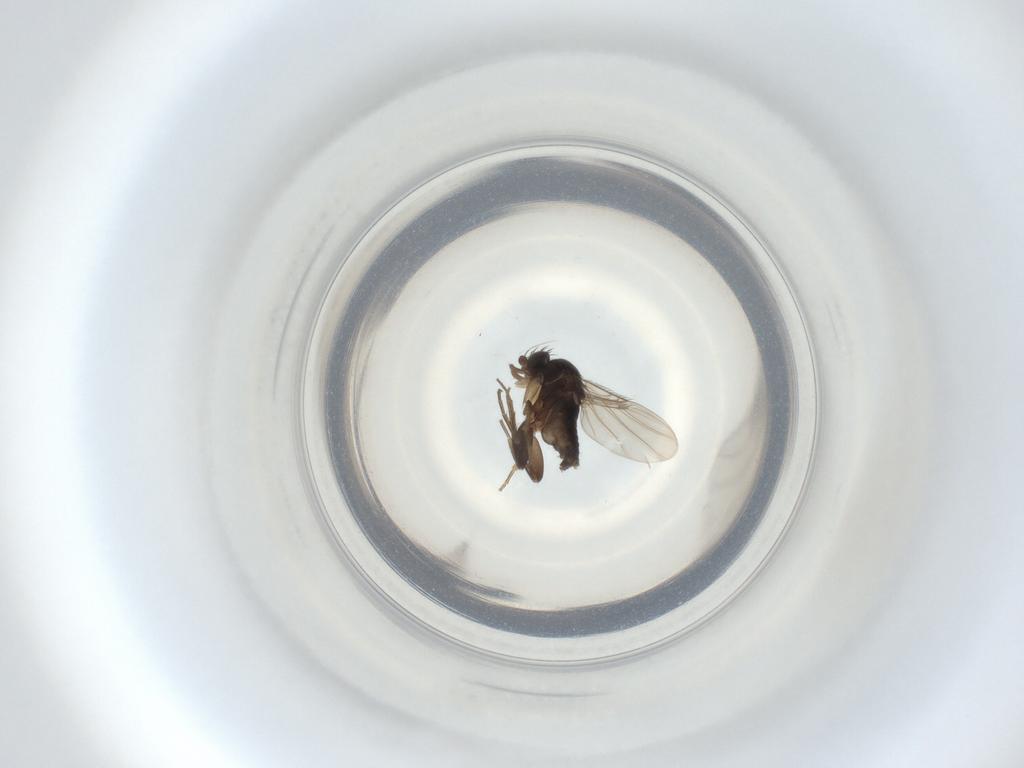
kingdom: Animalia
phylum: Arthropoda
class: Insecta
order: Diptera
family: Phoridae
